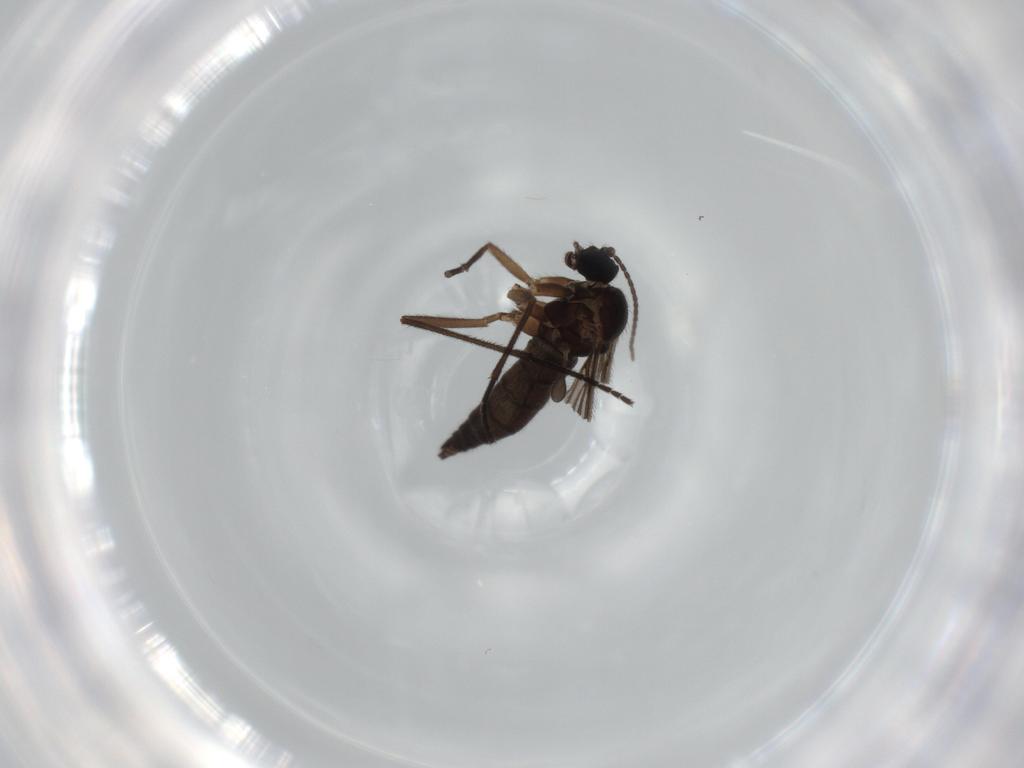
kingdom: Animalia
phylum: Arthropoda
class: Insecta
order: Diptera
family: Sciaridae
